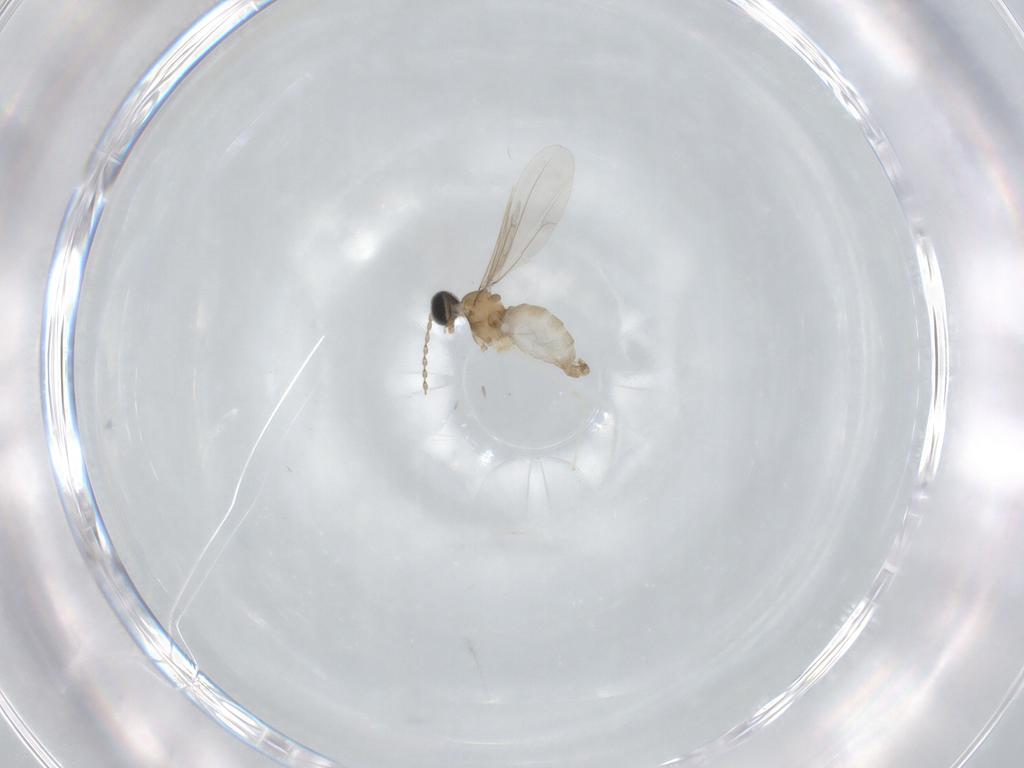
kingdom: Animalia
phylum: Arthropoda
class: Insecta
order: Diptera
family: Cecidomyiidae
